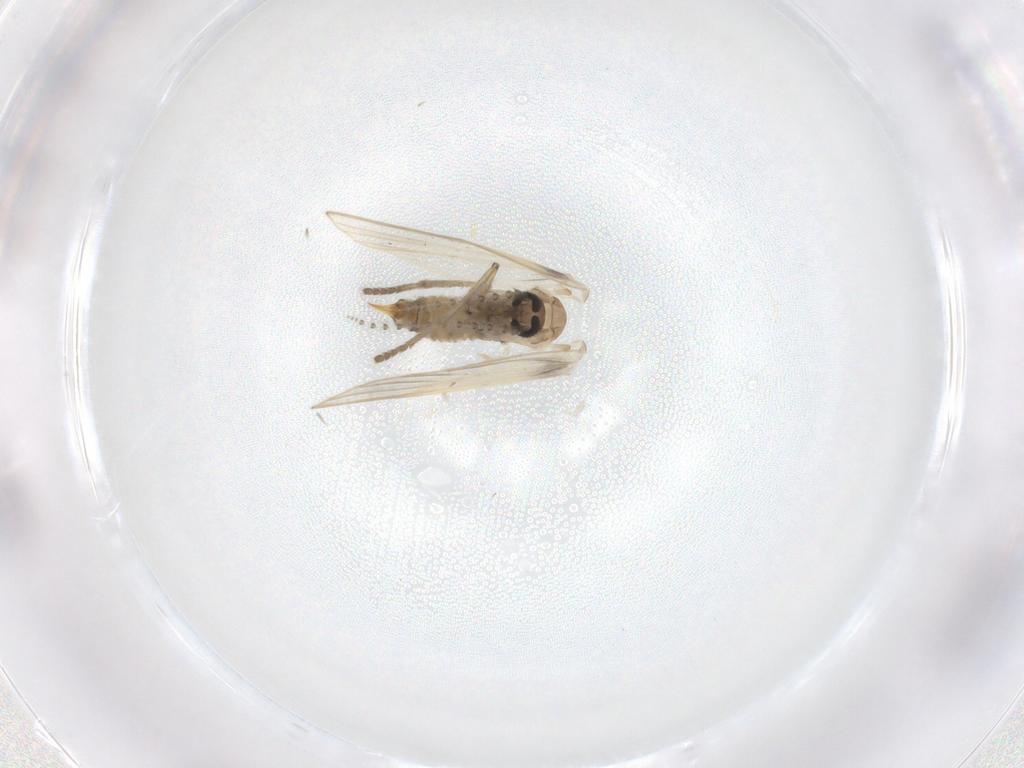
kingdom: Animalia
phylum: Arthropoda
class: Insecta
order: Diptera
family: Psychodidae
